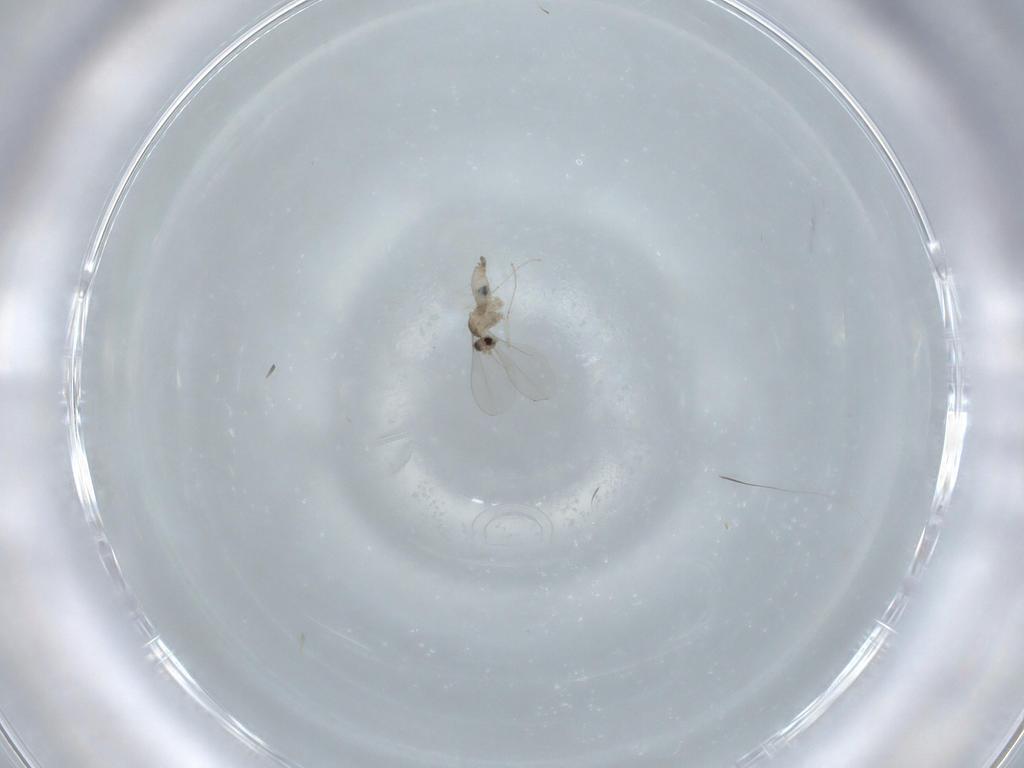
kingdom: Animalia
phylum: Arthropoda
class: Insecta
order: Diptera
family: Cecidomyiidae
